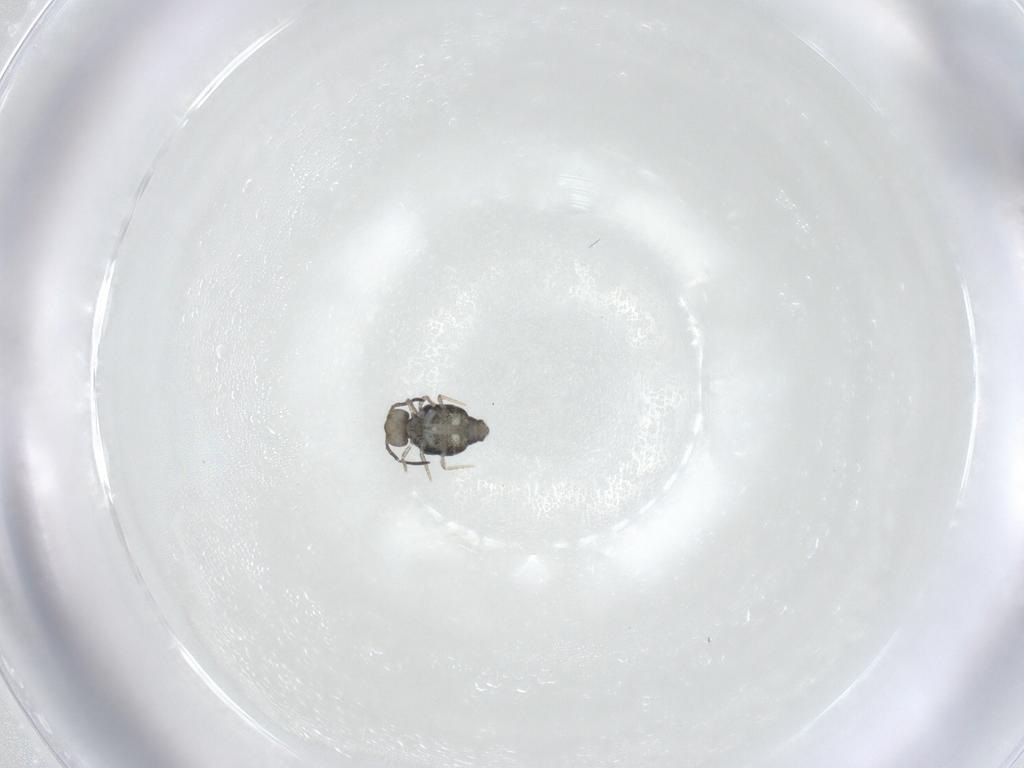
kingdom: Animalia
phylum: Arthropoda
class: Collembola
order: Symphypleona
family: Katiannidae
